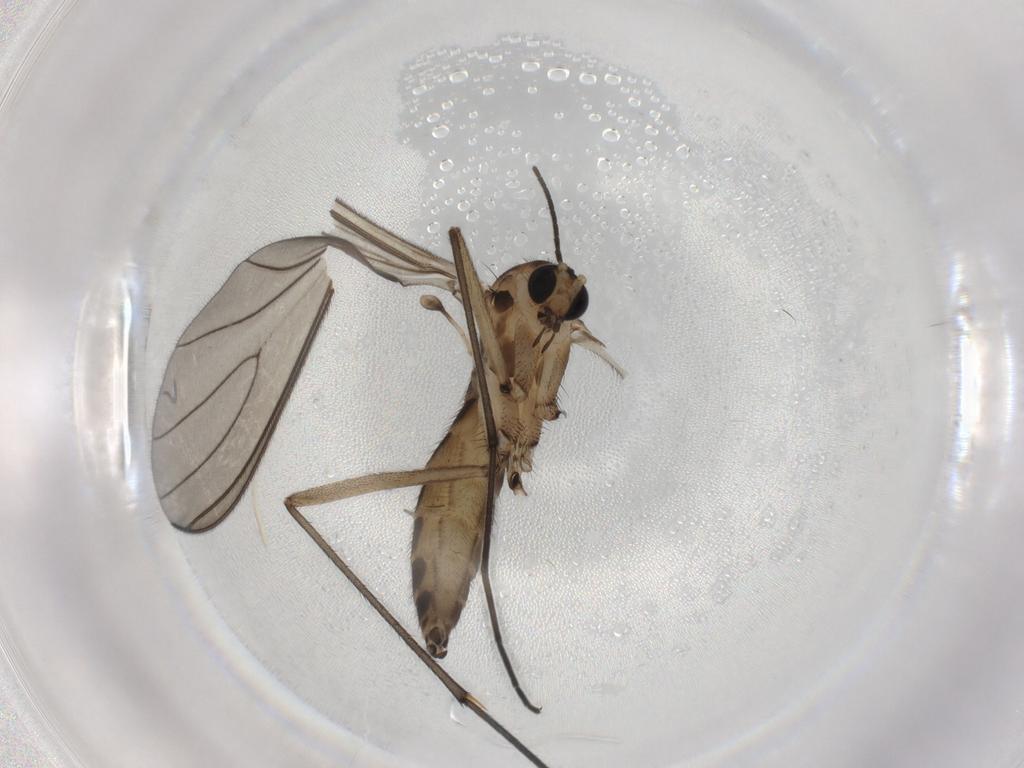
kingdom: Animalia
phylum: Arthropoda
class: Insecta
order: Diptera
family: Sciaridae
